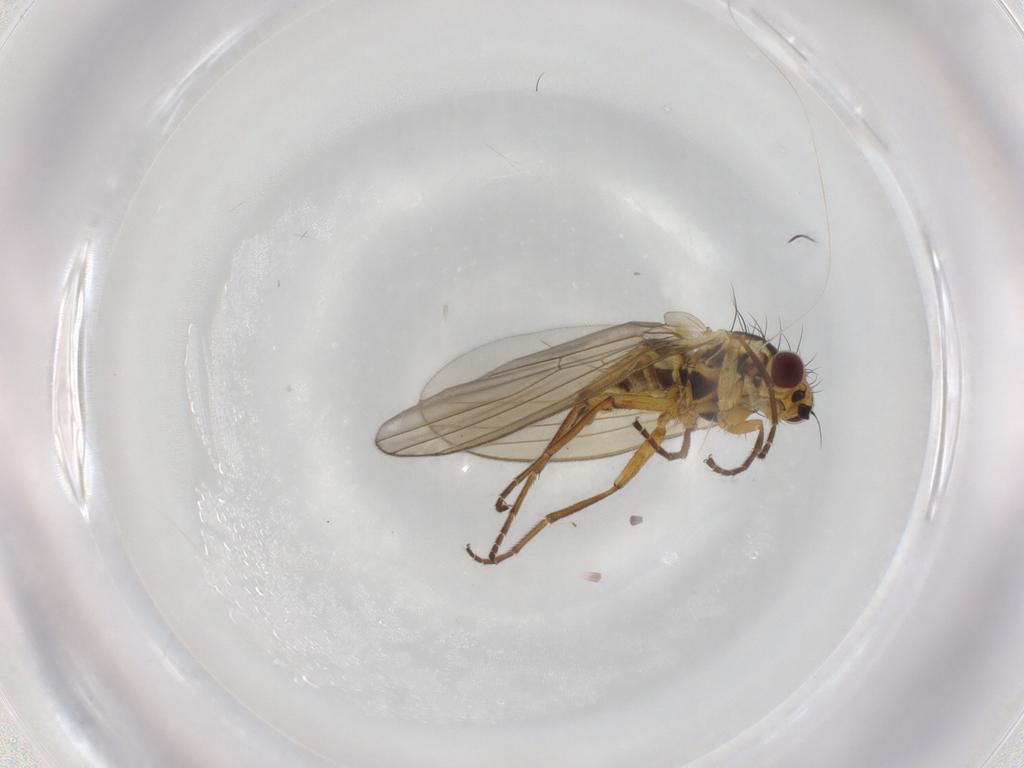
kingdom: Animalia
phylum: Arthropoda
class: Insecta
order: Diptera
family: Agromyzidae
